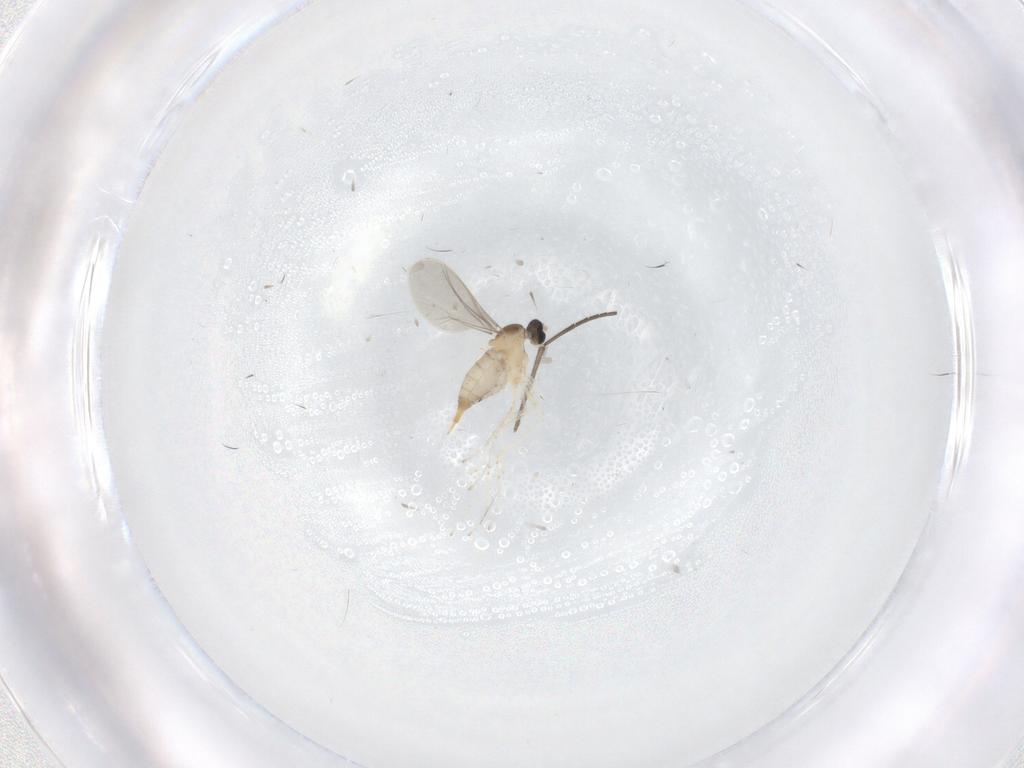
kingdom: Animalia
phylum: Arthropoda
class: Insecta
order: Diptera
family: Cecidomyiidae
